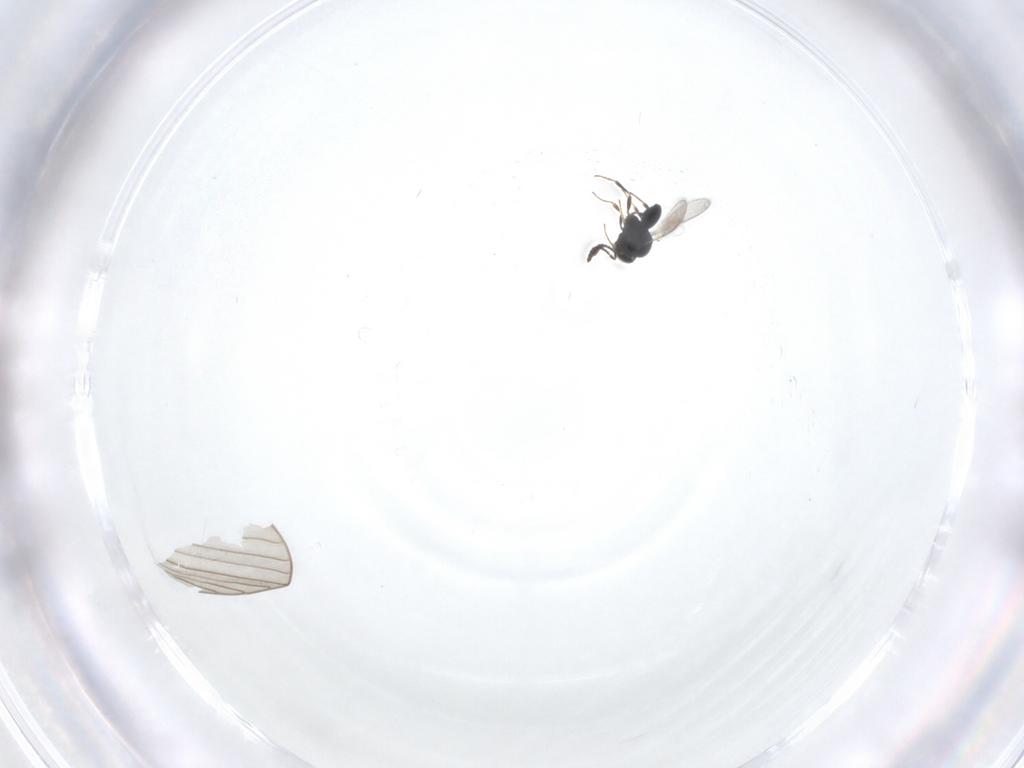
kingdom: Animalia
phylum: Arthropoda
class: Insecta
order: Hymenoptera
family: Scelionidae
